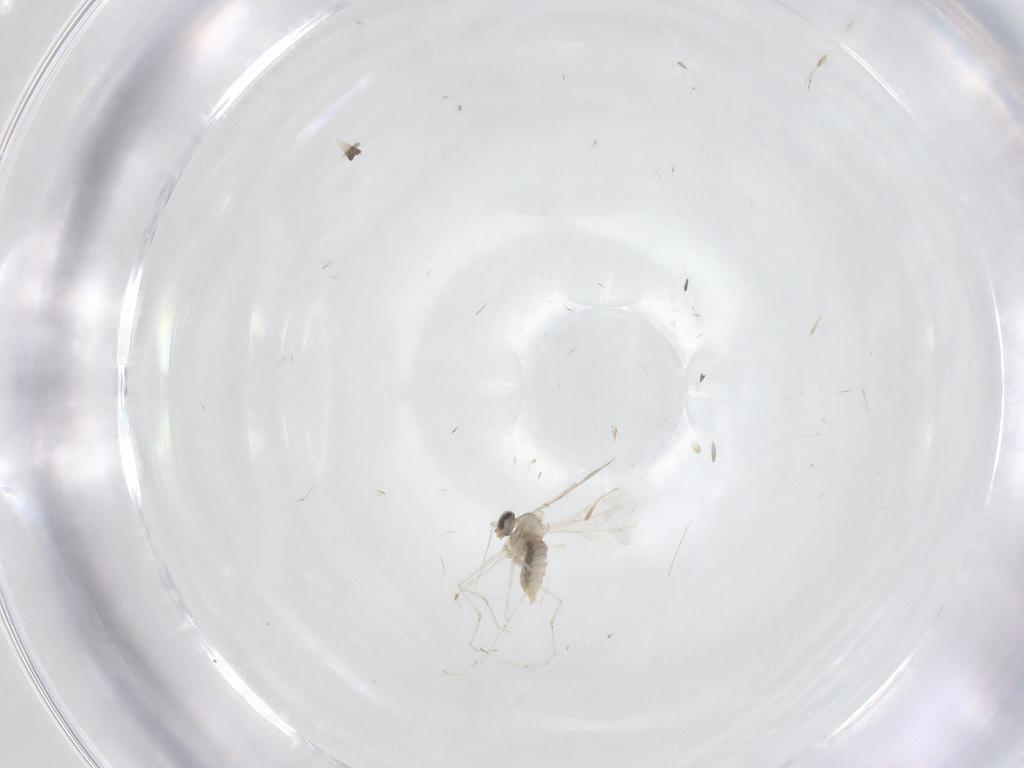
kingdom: Animalia
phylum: Arthropoda
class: Insecta
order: Diptera
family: Cecidomyiidae
